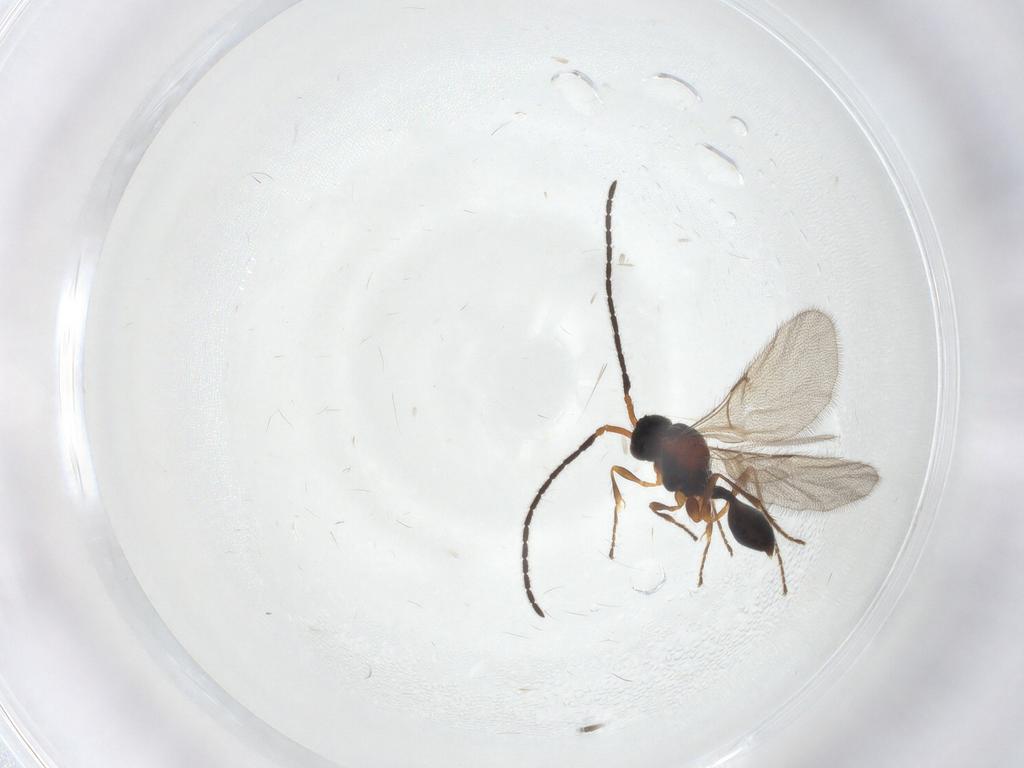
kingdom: Animalia
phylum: Arthropoda
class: Insecta
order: Hymenoptera
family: Diapriidae
